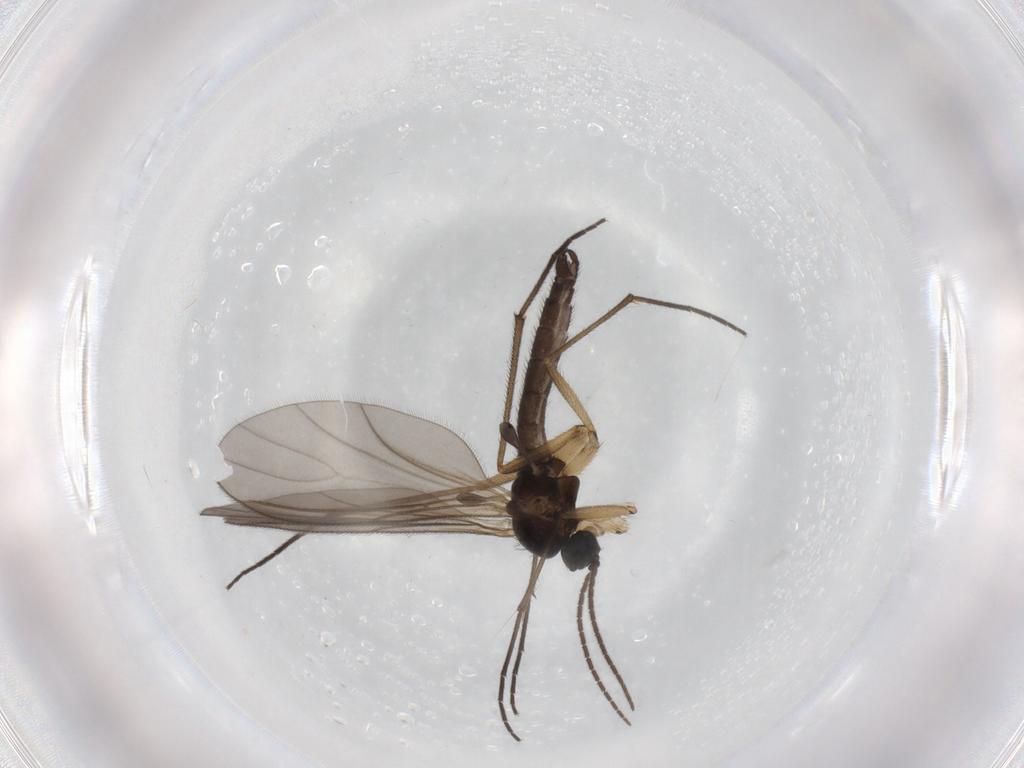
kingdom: Animalia
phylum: Arthropoda
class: Insecta
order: Diptera
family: Sciaridae
